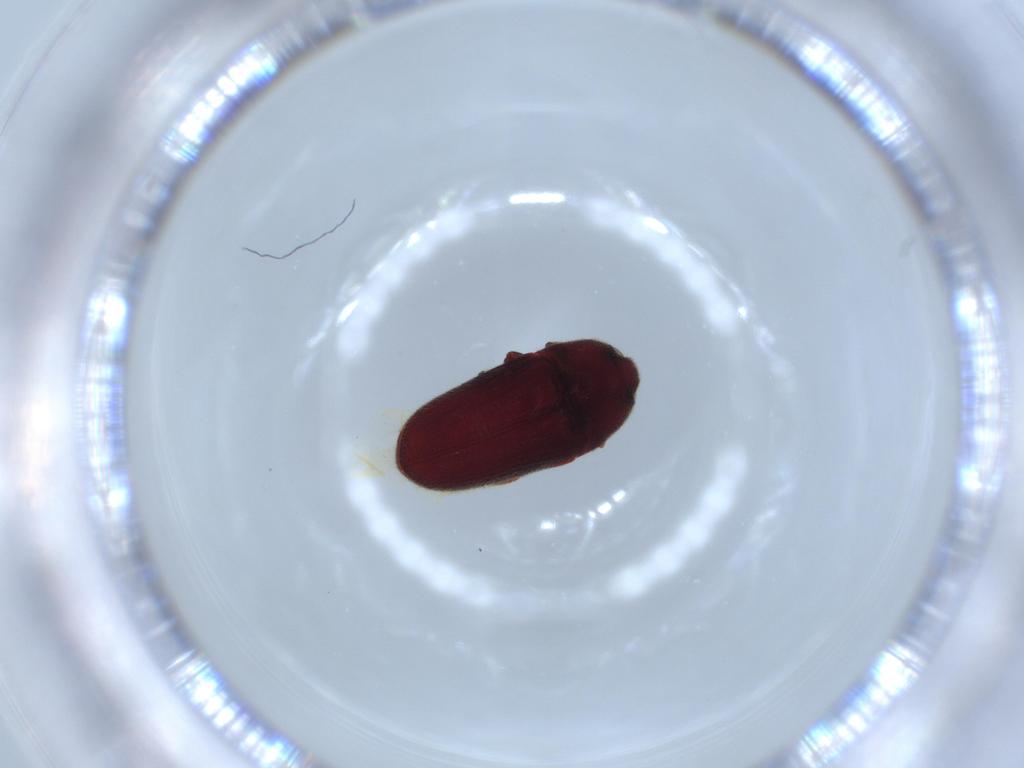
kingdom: Animalia
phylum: Arthropoda
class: Insecta
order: Coleoptera
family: Throscidae
